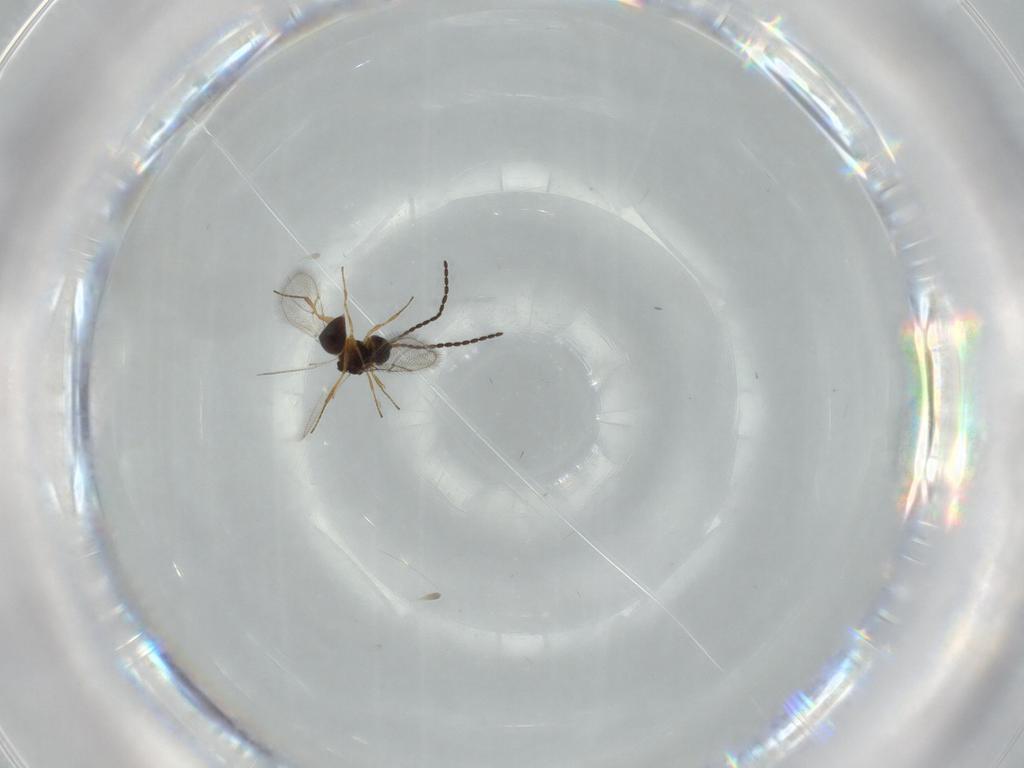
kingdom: Animalia
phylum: Arthropoda
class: Insecta
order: Hymenoptera
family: Figitidae
